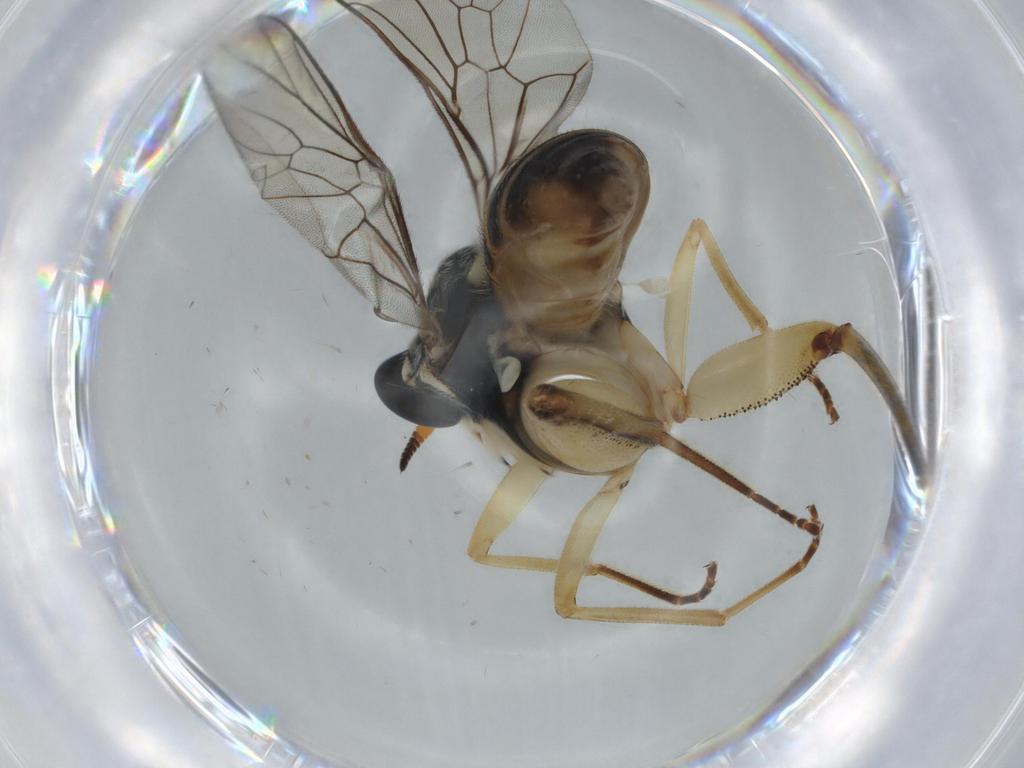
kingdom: Animalia
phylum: Arthropoda
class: Insecta
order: Diptera
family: Scatopsidae
